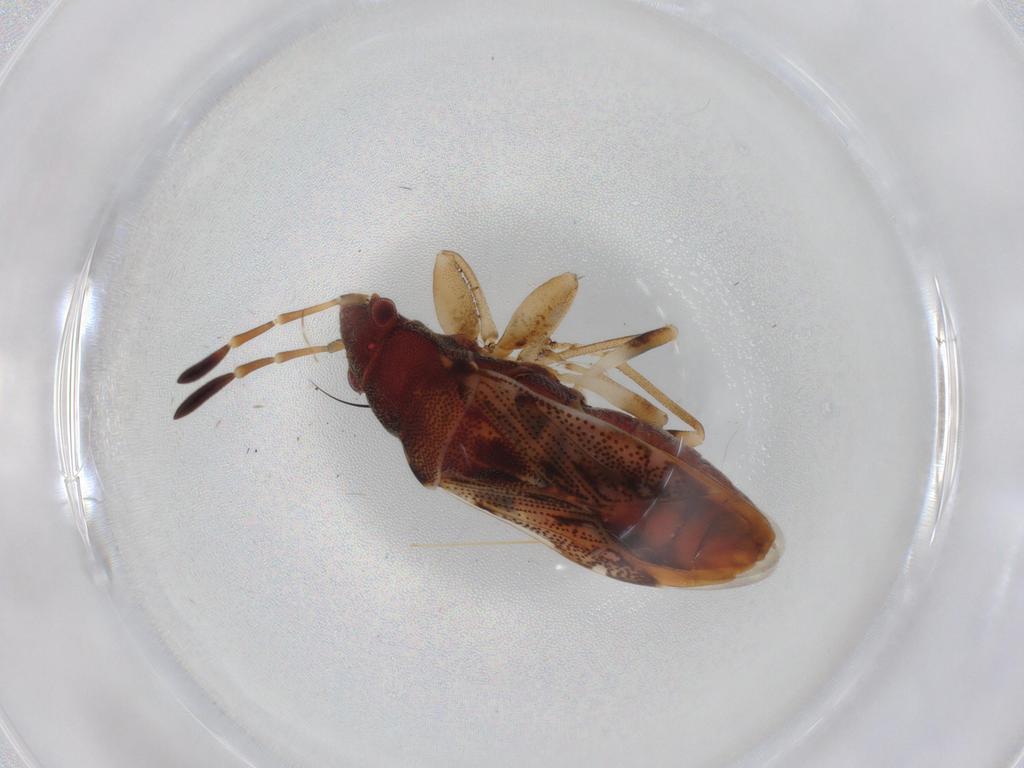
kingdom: Animalia
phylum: Arthropoda
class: Insecta
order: Hemiptera
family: Rhyparochromidae
